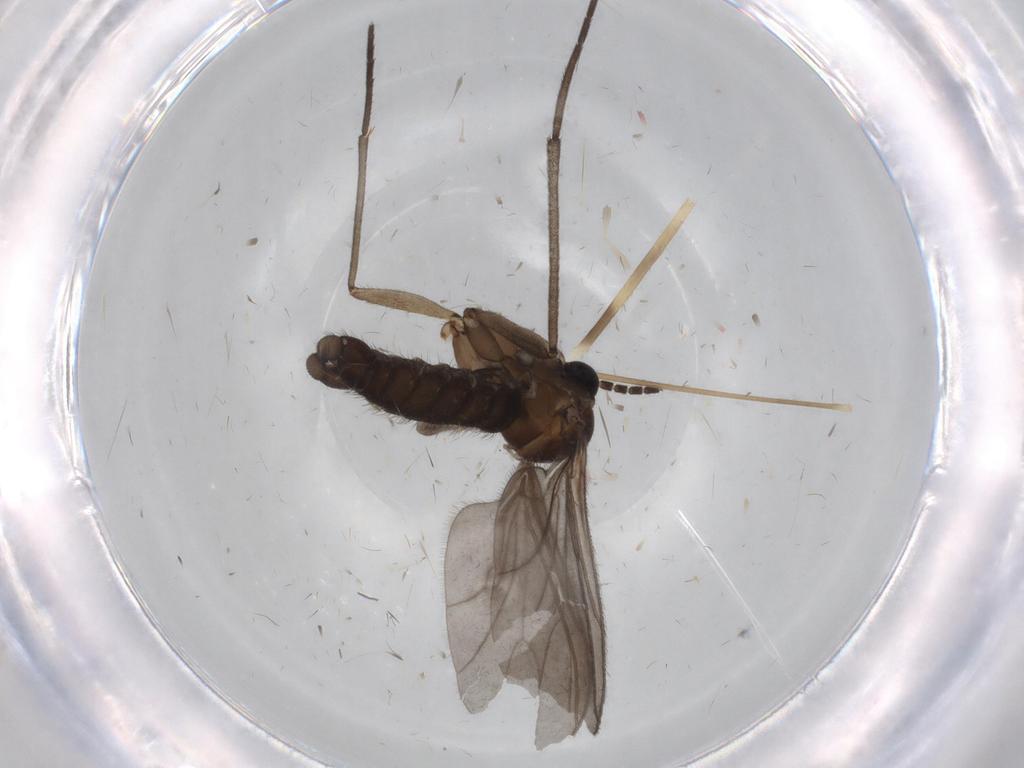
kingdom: Animalia
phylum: Arthropoda
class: Insecta
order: Diptera
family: Sciaridae
